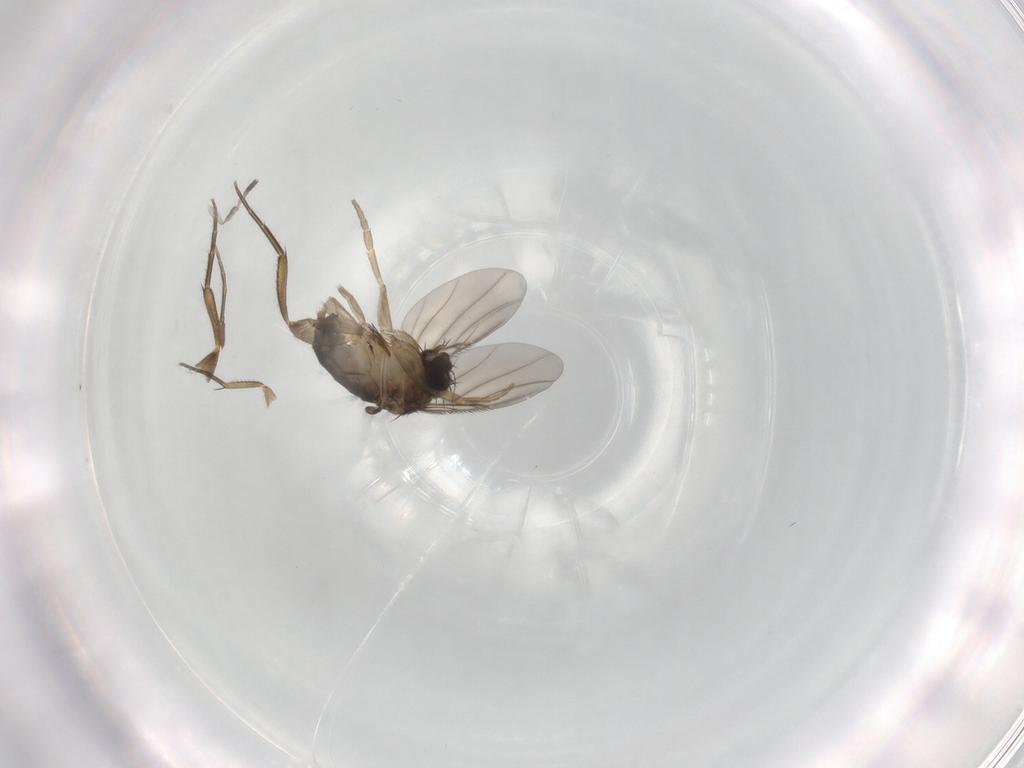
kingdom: Animalia
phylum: Arthropoda
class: Insecta
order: Diptera
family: Phoridae
